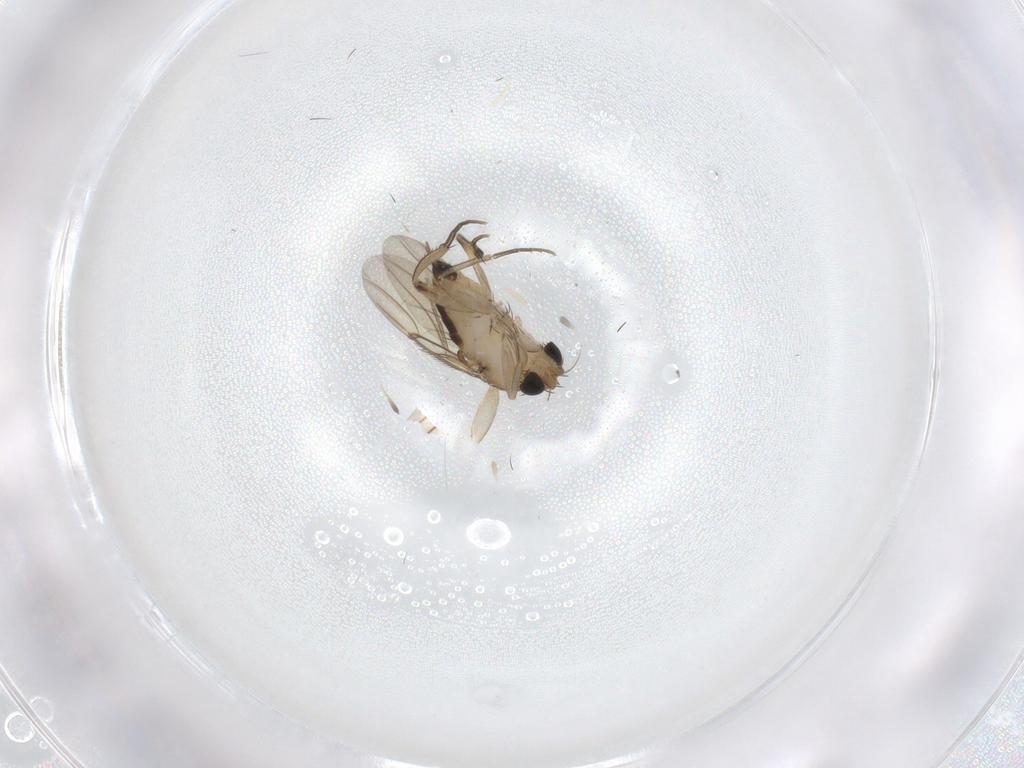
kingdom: Animalia
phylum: Arthropoda
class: Insecta
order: Diptera
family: Phoridae
